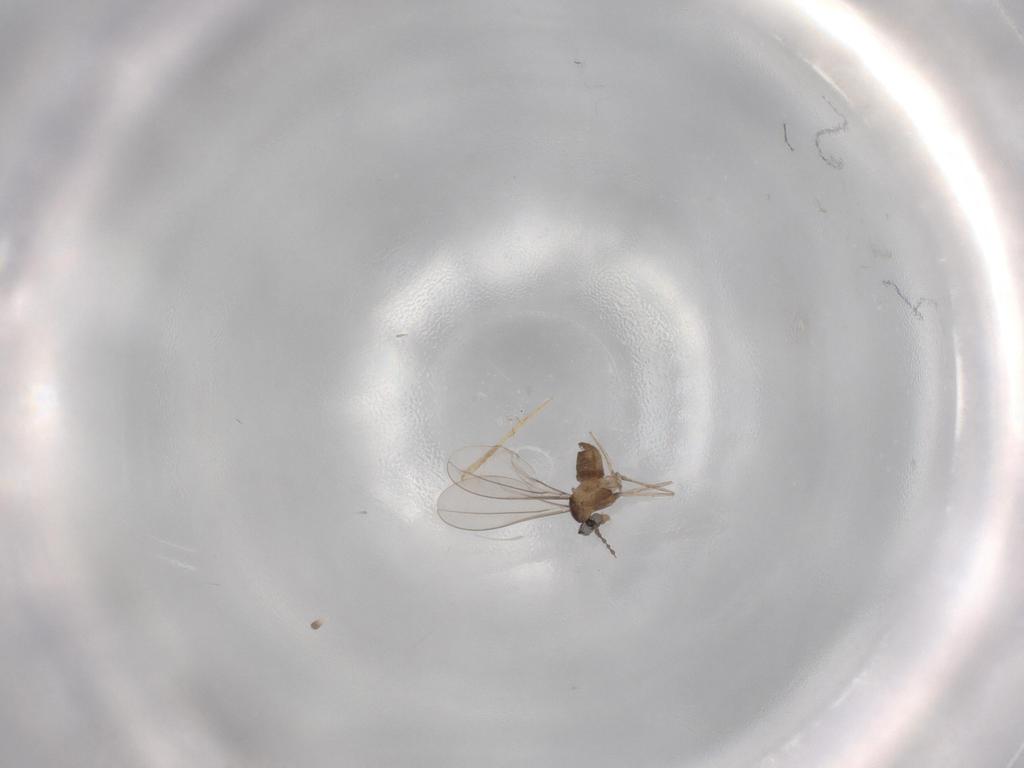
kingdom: Animalia
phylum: Arthropoda
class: Insecta
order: Diptera
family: Cecidomyiidae
